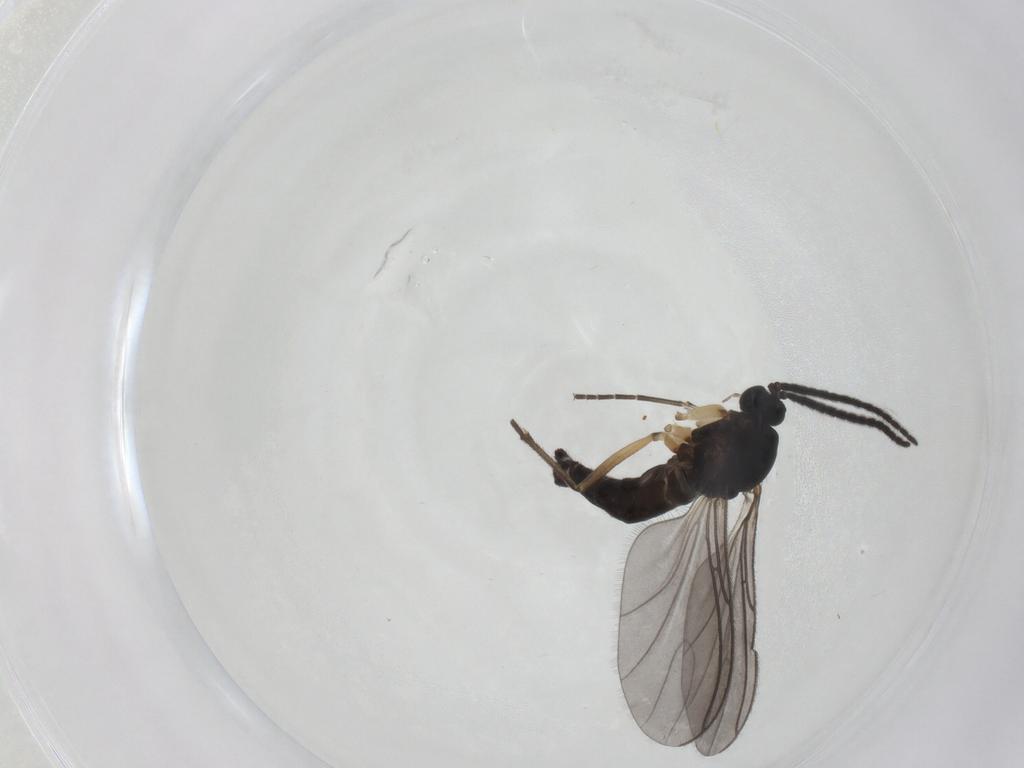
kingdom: Animalia
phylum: Arthropoda
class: Insecta
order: Diptera
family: Sciaridae
